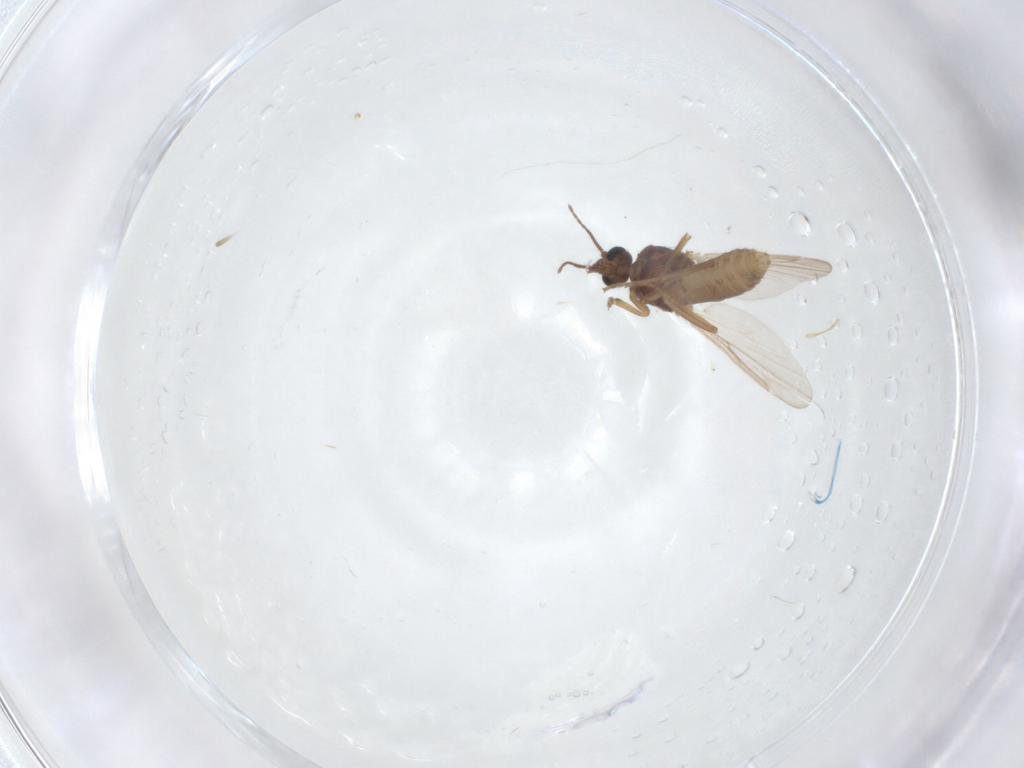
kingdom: Animalia
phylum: Arthropoda
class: Insecta
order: Diptera
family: Ceratopogonidae
